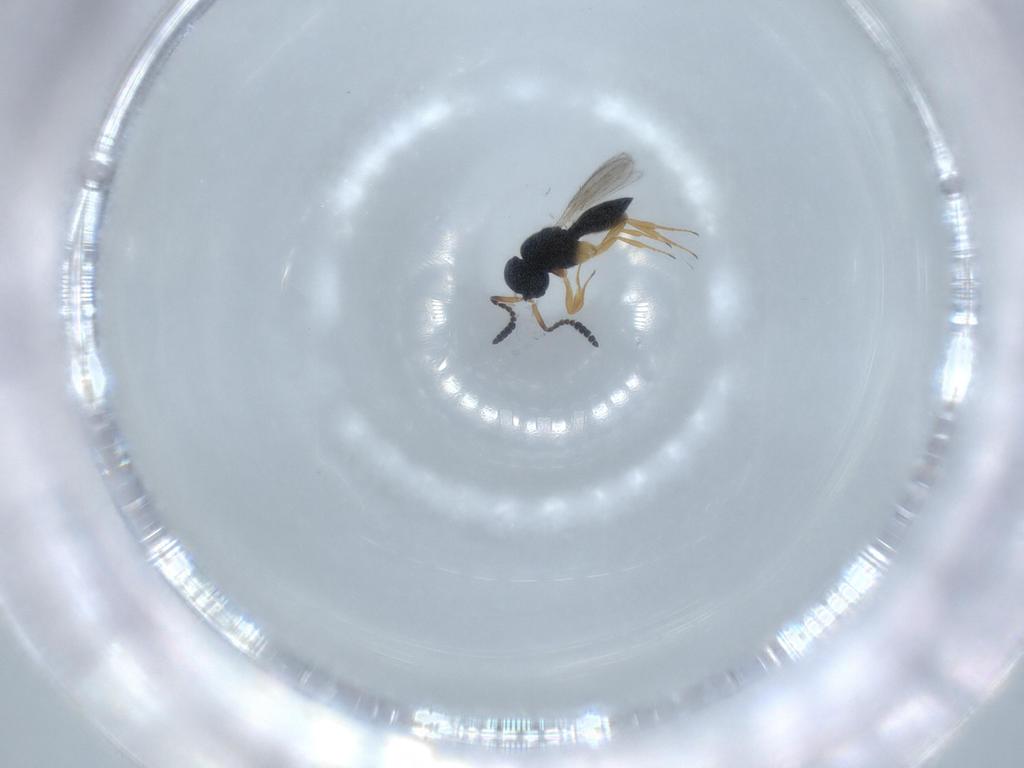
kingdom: Animalia
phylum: Arthropoda
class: Insecta
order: Hymenoptera
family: Scelionidae
